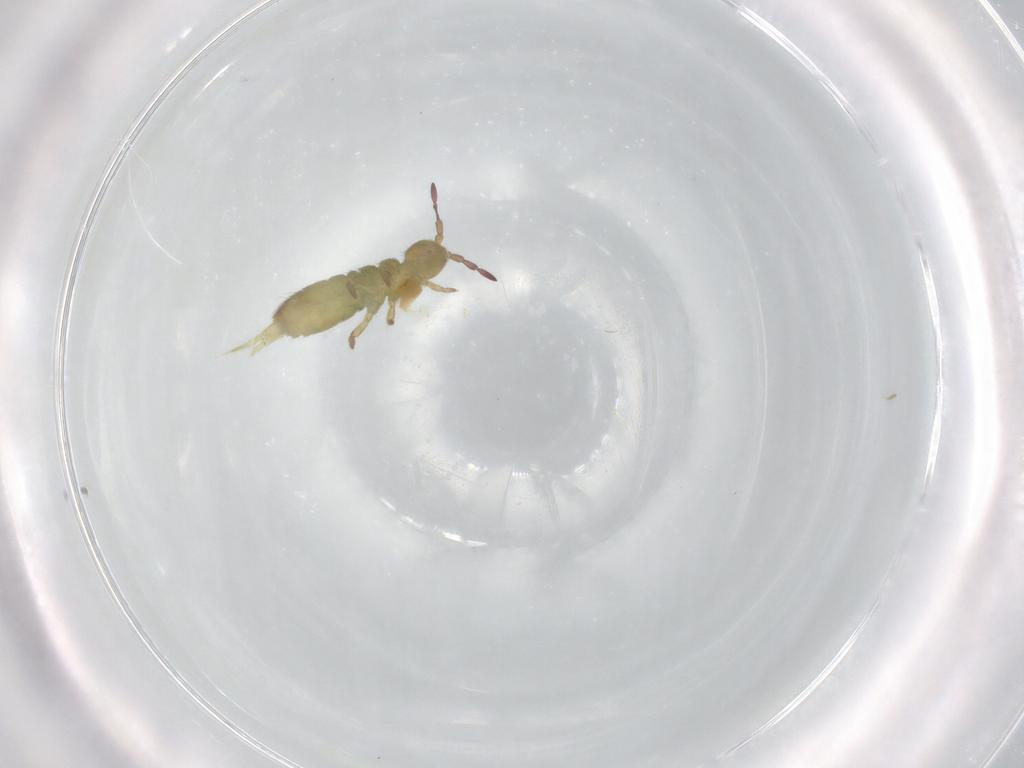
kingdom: Animalia
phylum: Arthropoda
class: Collembola
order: Entomobryomorpha
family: Isotomidae
